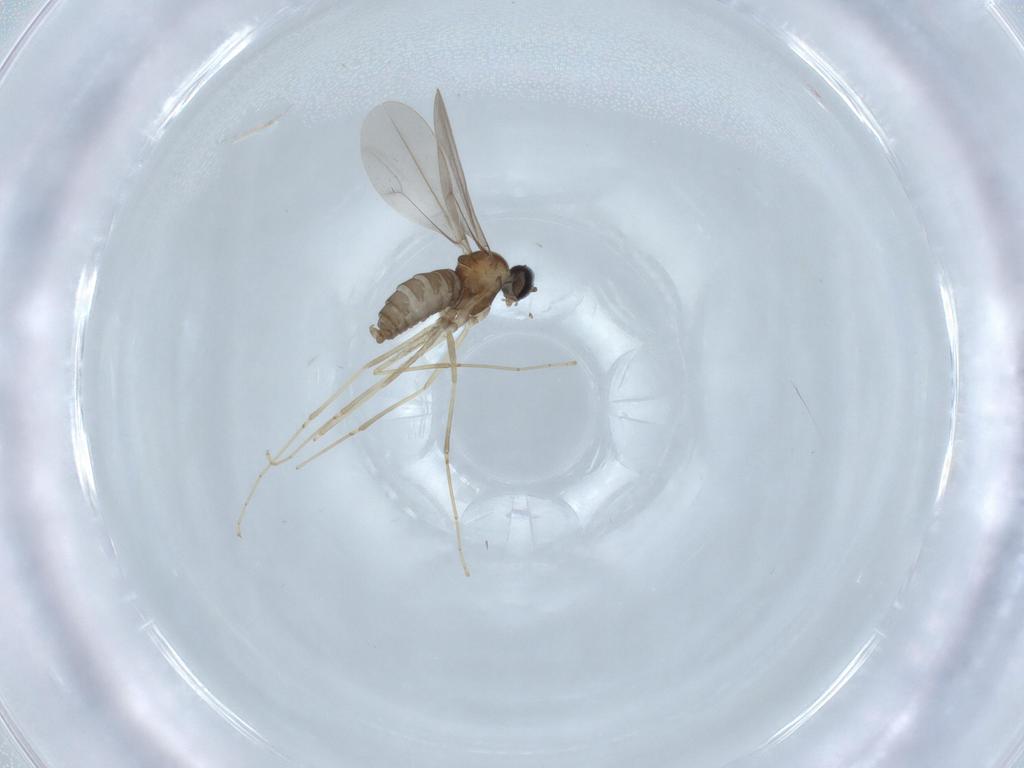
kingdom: Animalia
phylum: Arthropoda
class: Insecta
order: Diptera
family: Cecidomyiidae
